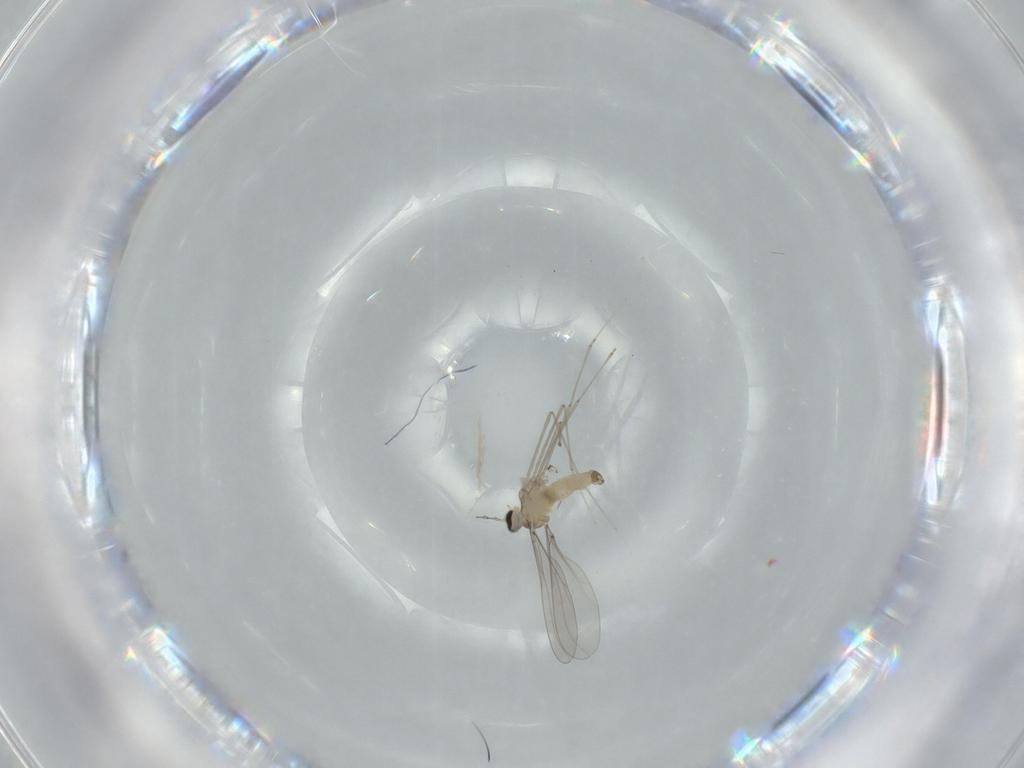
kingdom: Animalia
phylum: Arthropoda
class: Insecta
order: Diptera
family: Cecidomyiidae
